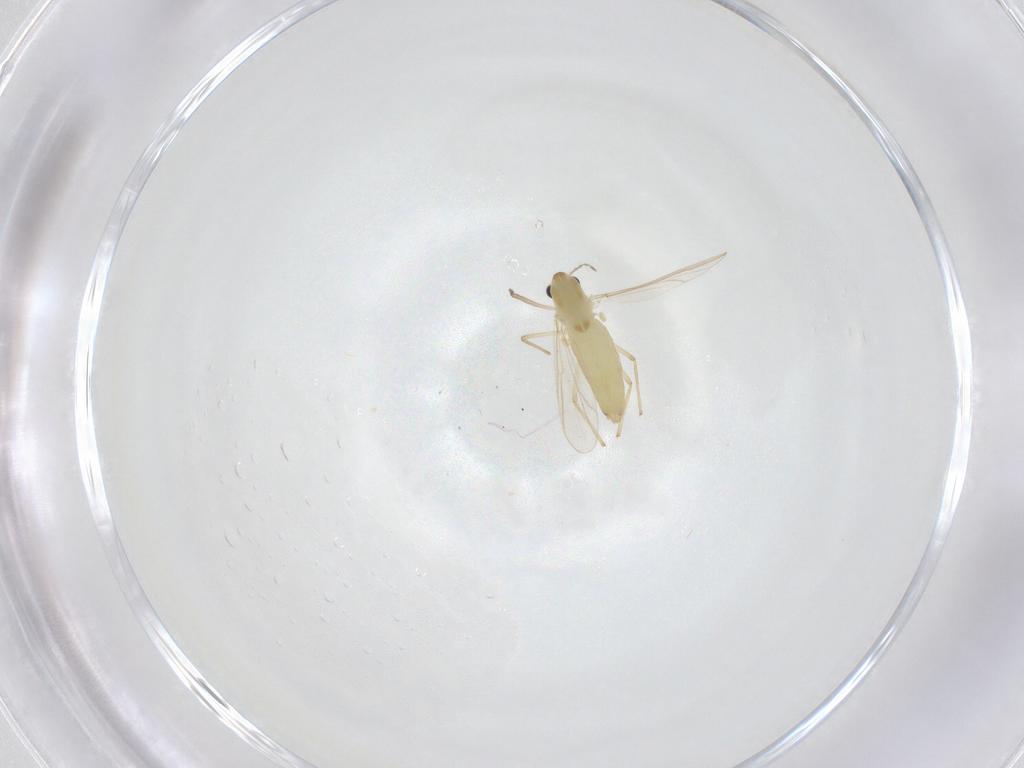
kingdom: Animalia
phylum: Arthropoda
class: Insecta
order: Diptera
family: Chironomidae
